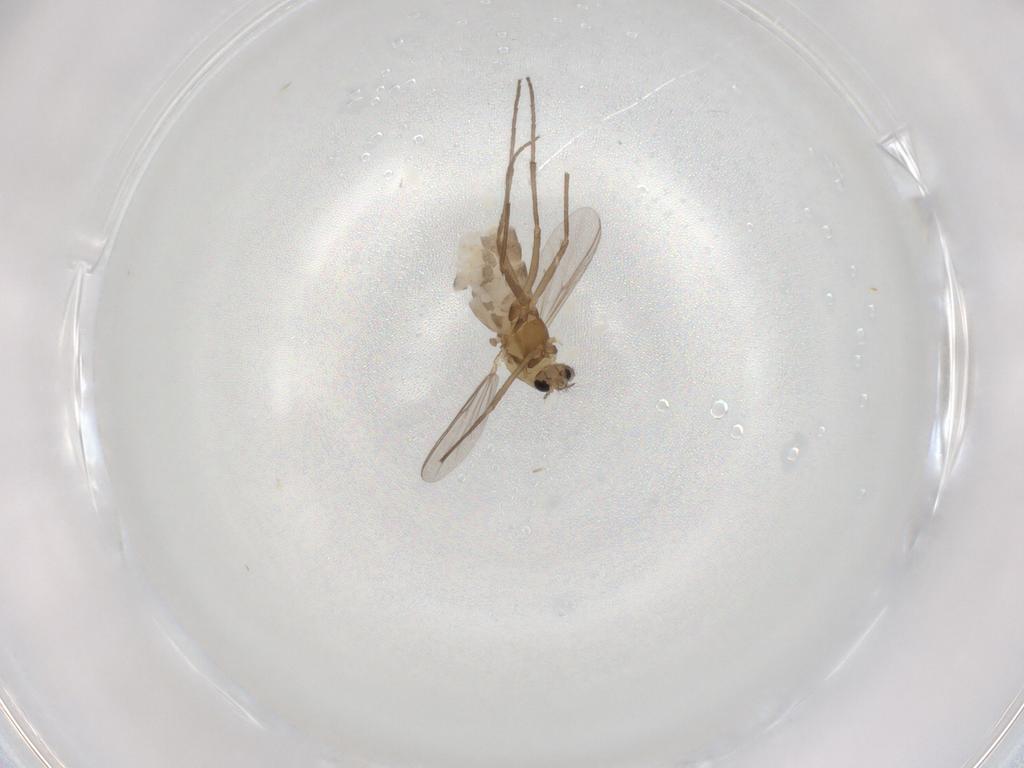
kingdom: Animalia
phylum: Arthropoda
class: Insecta
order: Diptera
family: Chironomidae
